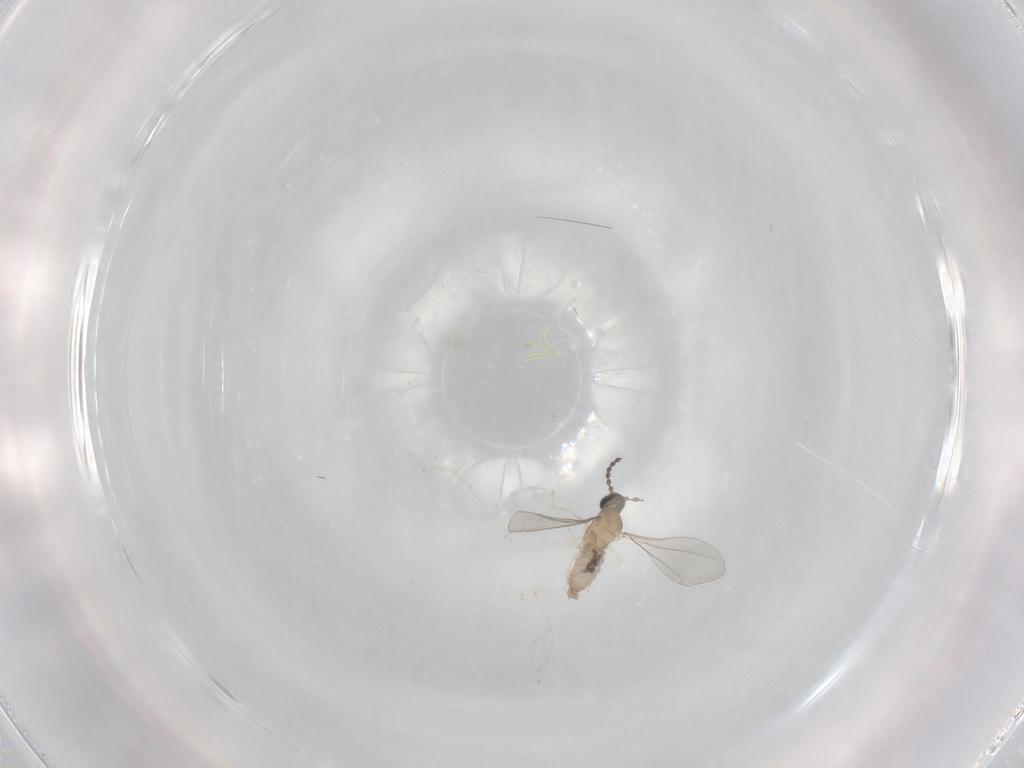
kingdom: Animalia
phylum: Arthropoda
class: Insecta
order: Diptera
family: Cecidomyiidae
